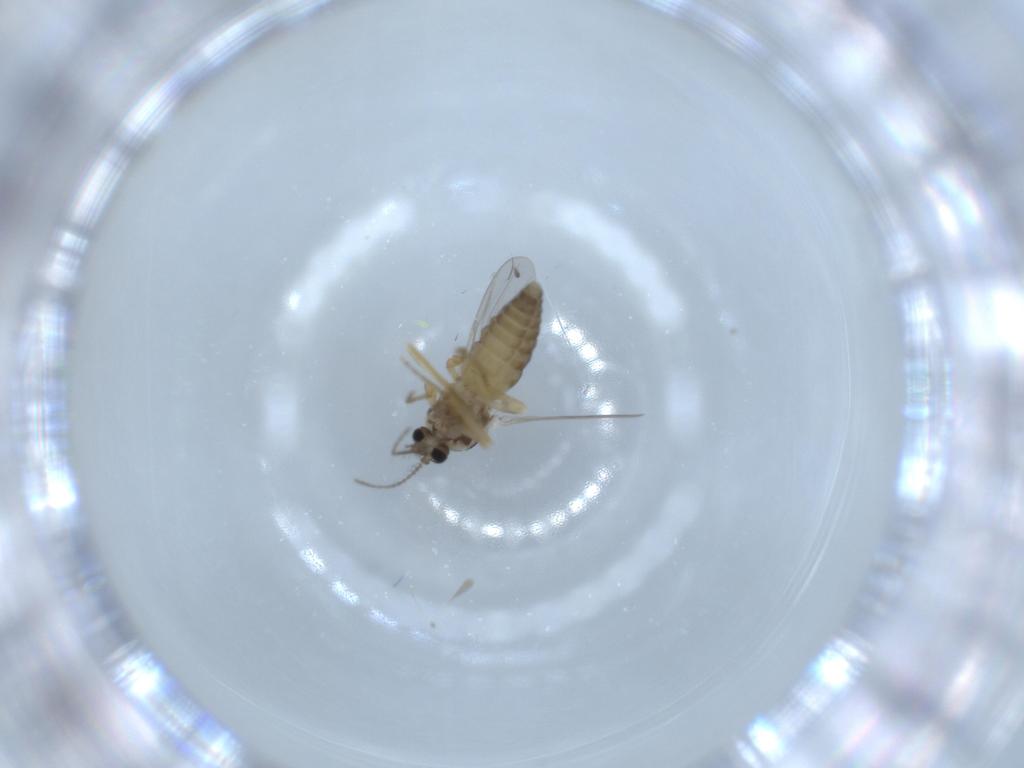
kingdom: Animalia
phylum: Arthropoda
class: Insecta
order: Diptera
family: Ceratopogonidae
